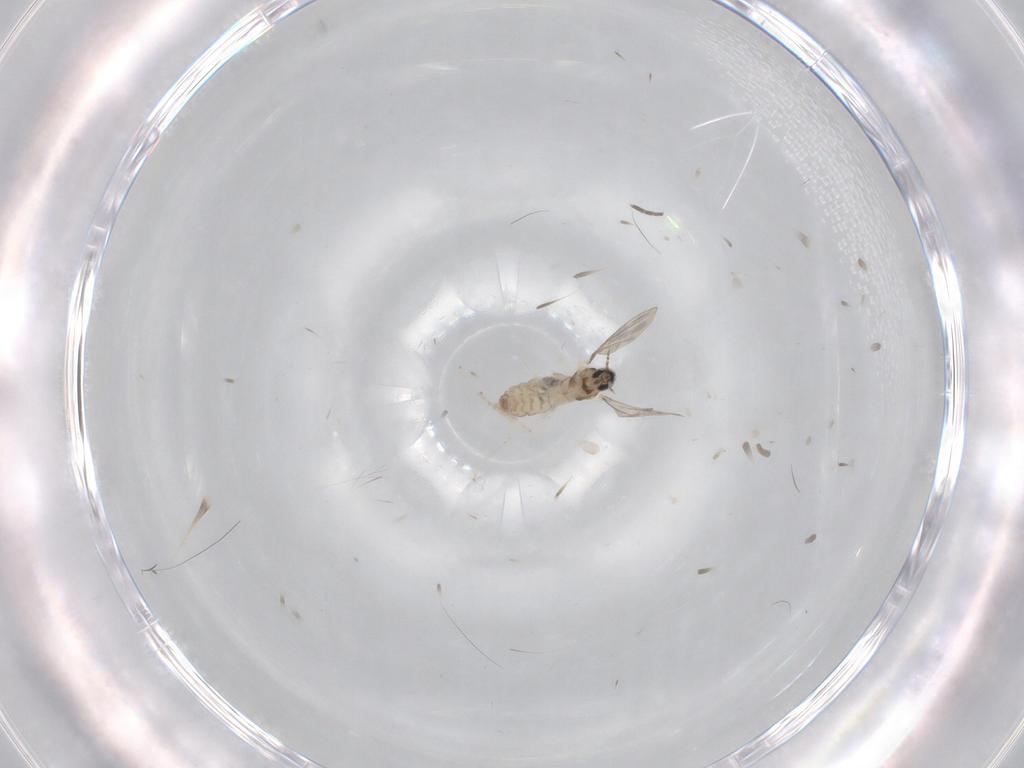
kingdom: Animalia
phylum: Arthropoda
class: Insecta
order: Diptera
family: Cecidomyiidae
